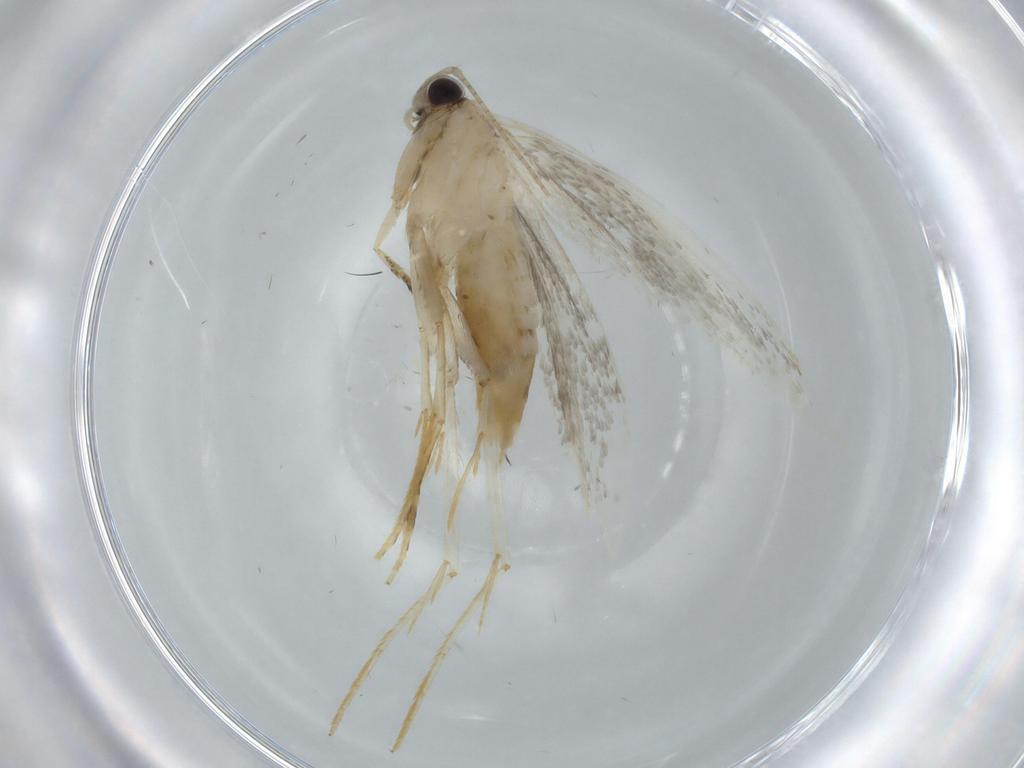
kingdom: Animalia
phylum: Arthropoda
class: Insecta
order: Lepidoptera
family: Tineidae
